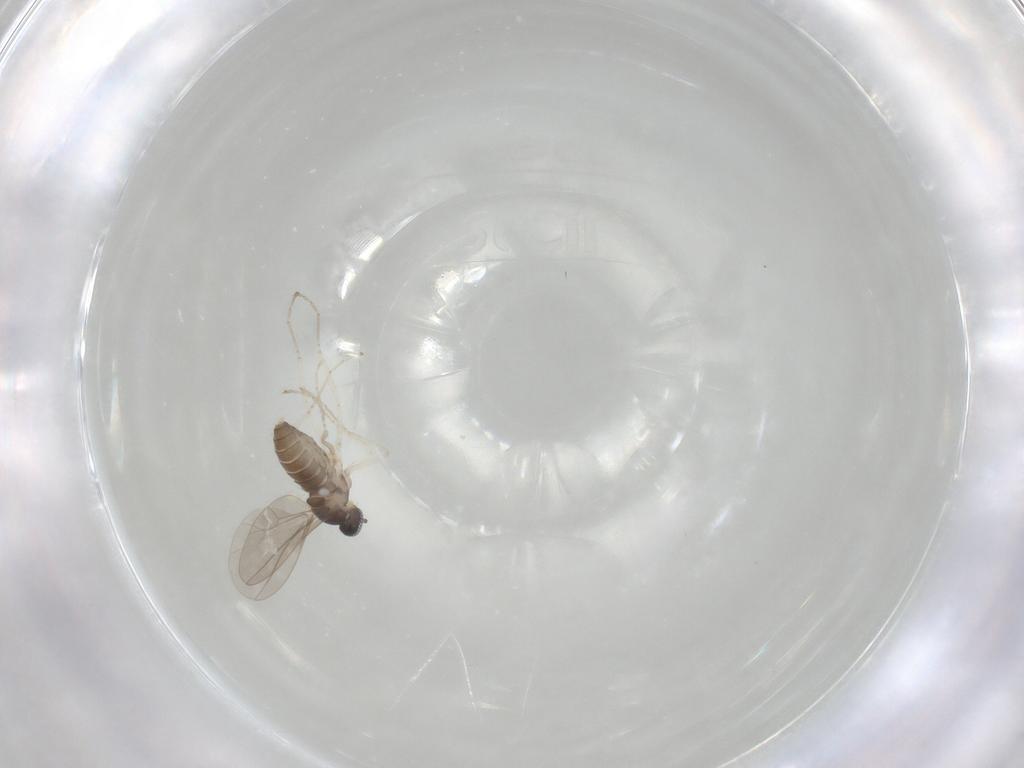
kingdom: Animalia
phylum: Arthropoda
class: Insecta
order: Diptera
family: Cecidomyiidae
